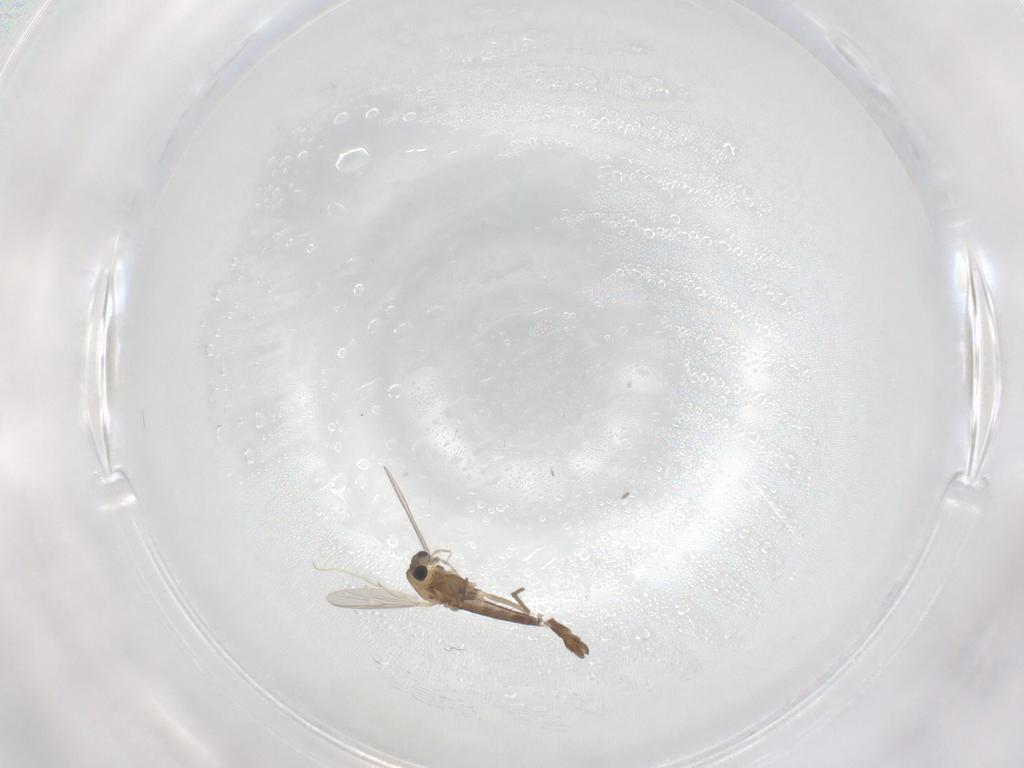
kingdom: Animalia
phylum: Arthropoda
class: Insecta
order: Diptera
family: Chironomidae
